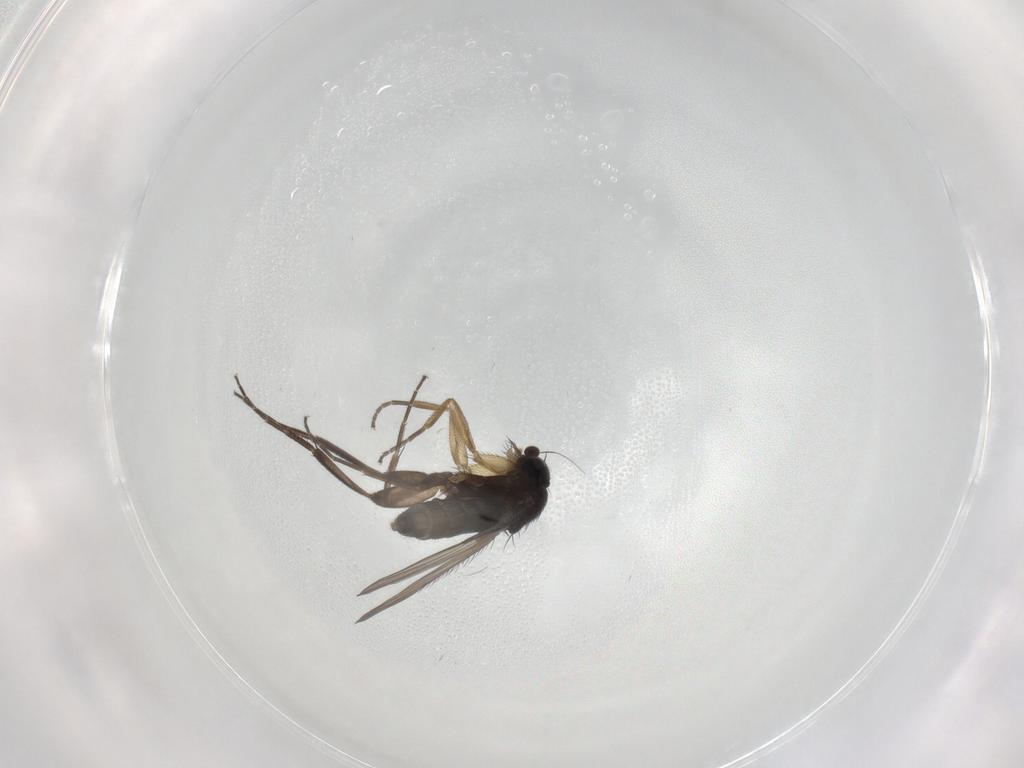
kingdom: Animalia
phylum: Arthropoda
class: Insecta
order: Diptera
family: Phoridae
